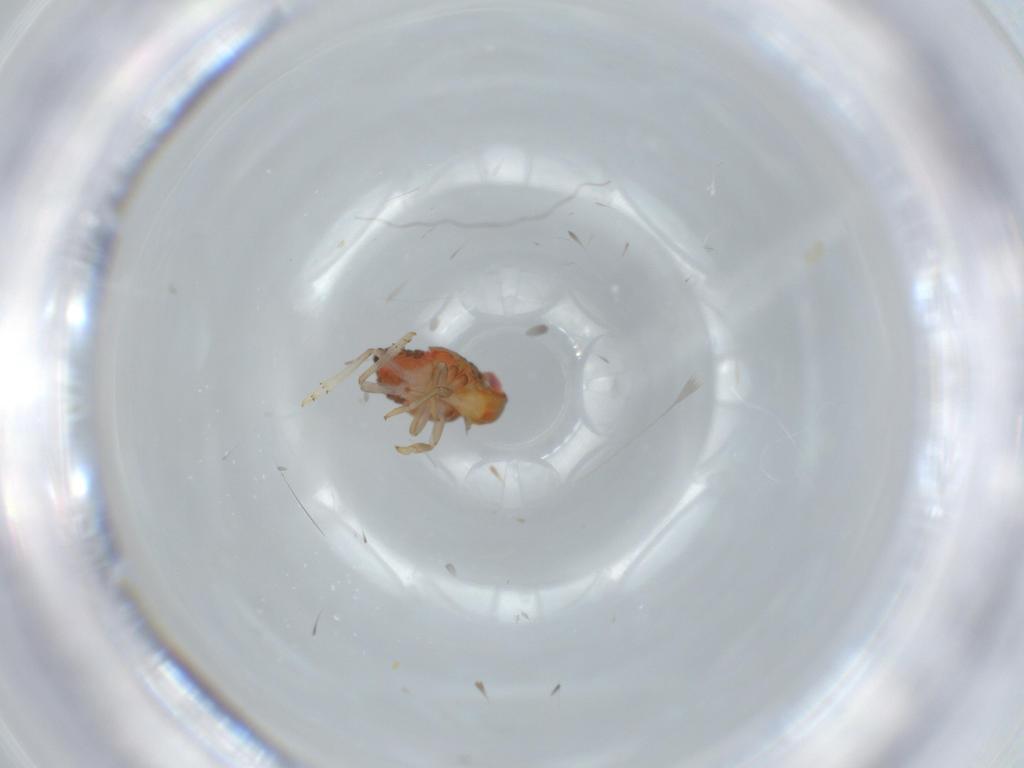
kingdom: Animalia
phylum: Arthropoda
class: Insecta
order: Hemiptera
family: Issidae
